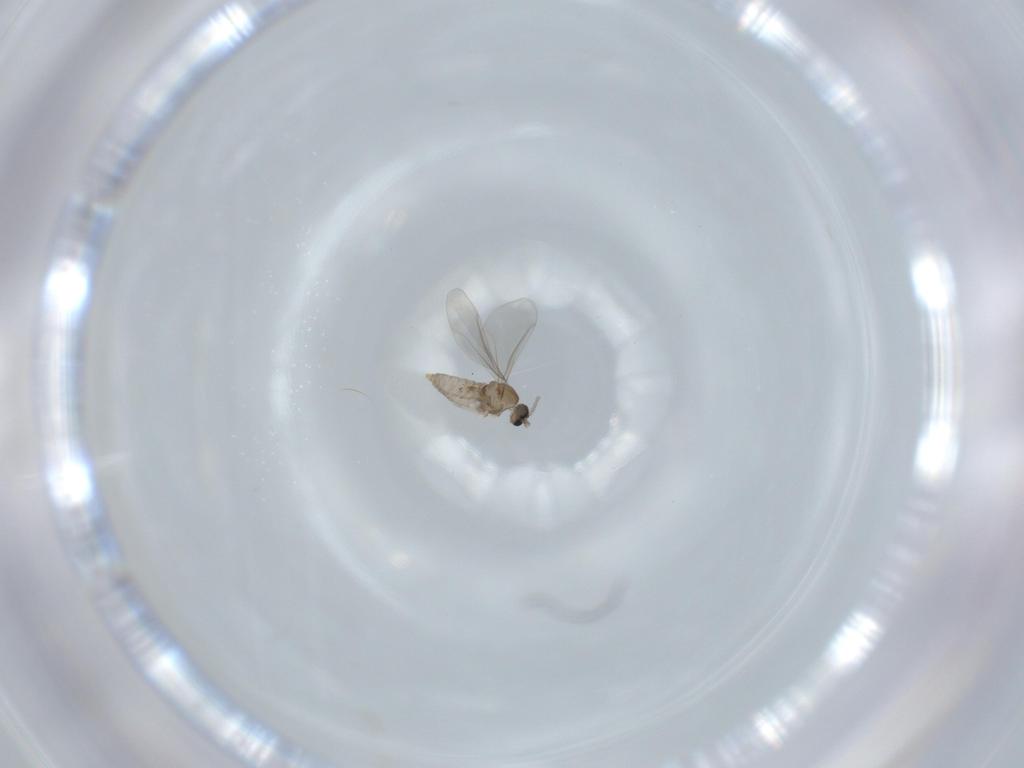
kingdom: Animalia
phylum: Arthropoda
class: Insecta
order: Diptera
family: Cecidomyiidae
